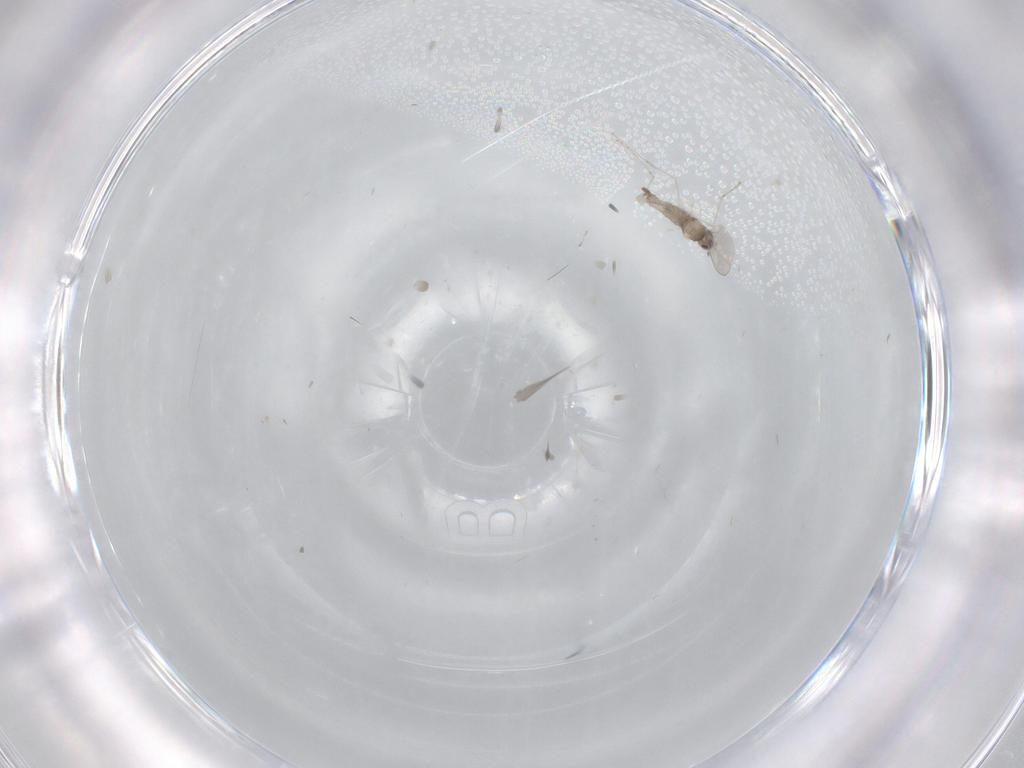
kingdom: Animalia
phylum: Arthropoda
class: Insecta
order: Diptera
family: Cecidomyiidae
